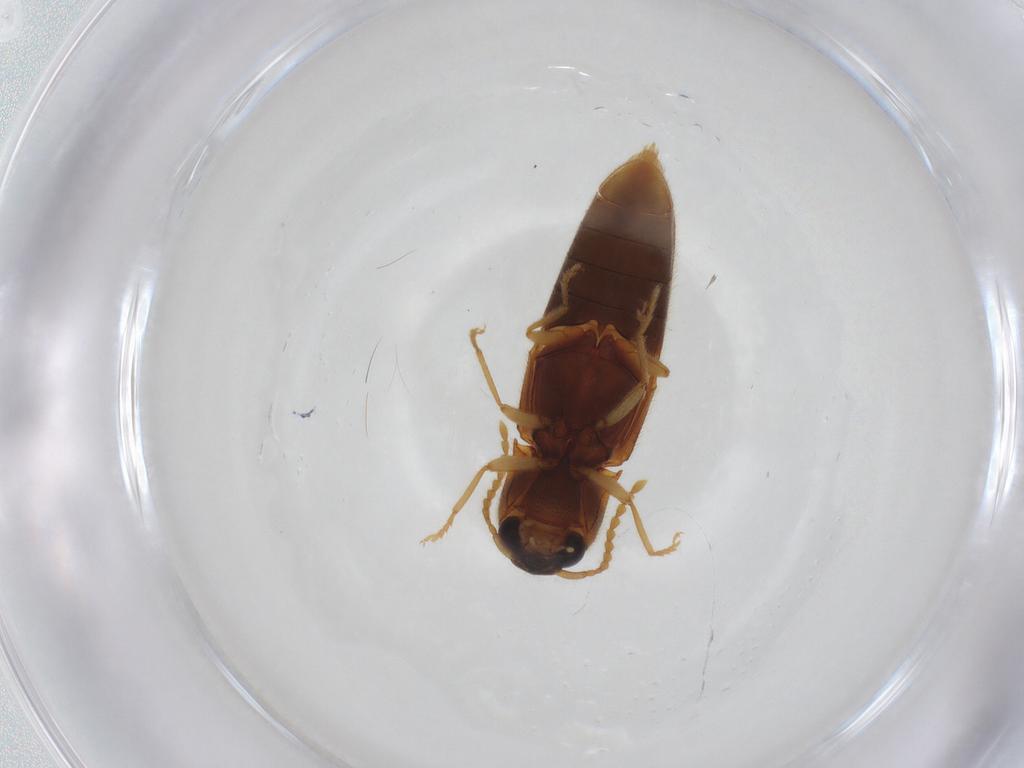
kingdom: Animalia
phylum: Arthropoda
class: Insecta
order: Coleoptera
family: Elateridae
